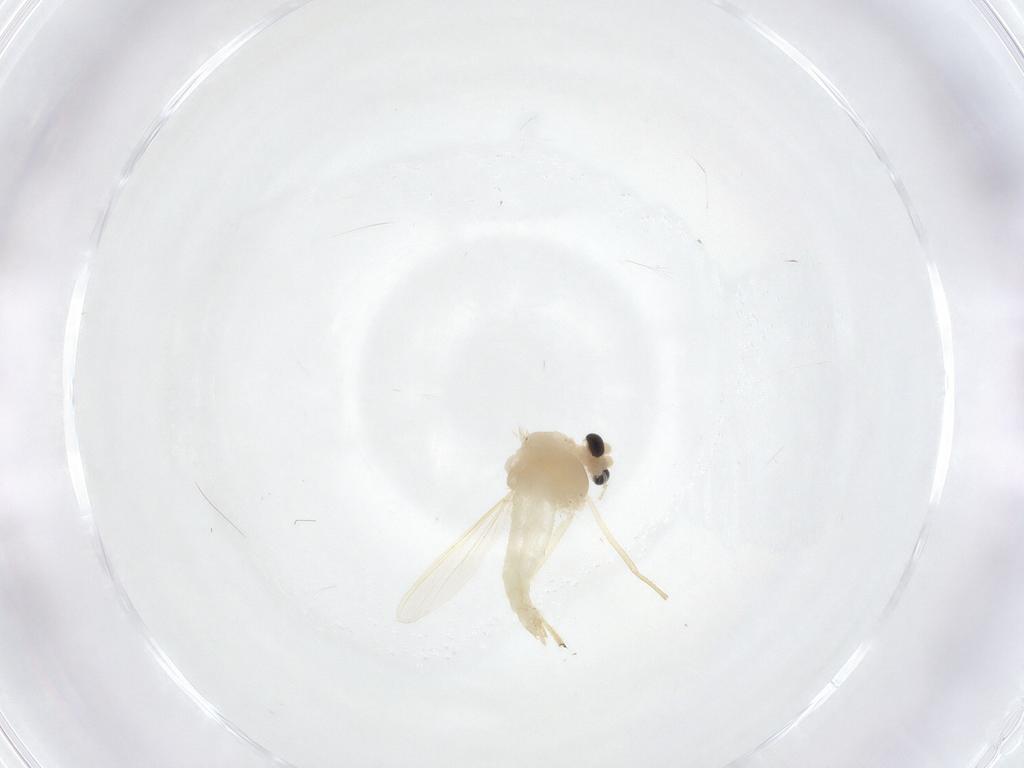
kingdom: Animalia
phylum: Arthropoda
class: Insecta
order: Diptera
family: Chironomidae
